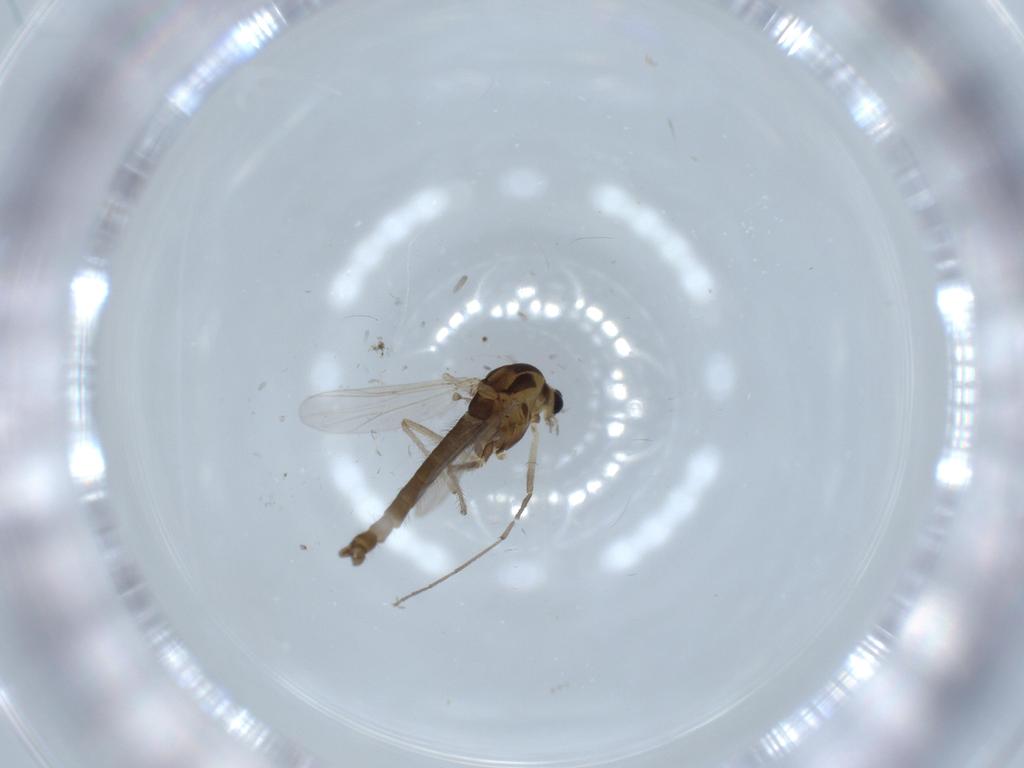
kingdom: Animalia
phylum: Arthropoda
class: Insecta
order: Diptera
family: Chironomidae
